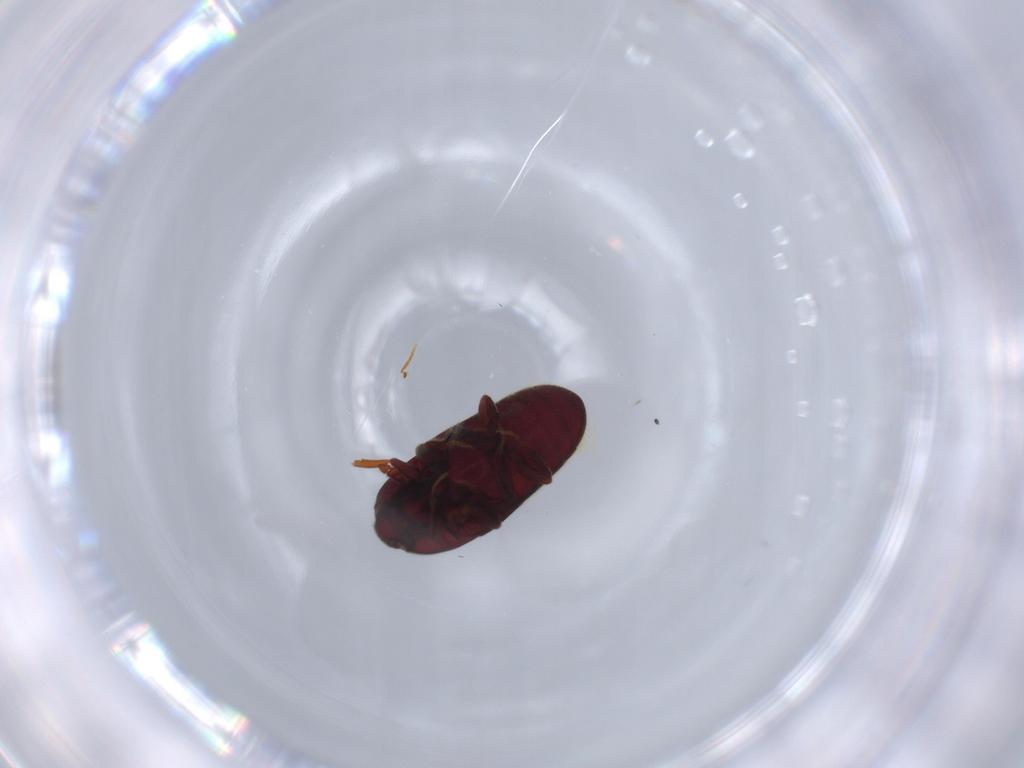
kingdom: Animalia
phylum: Arthropoda
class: Insecta
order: Coleoptera
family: Throscidae
